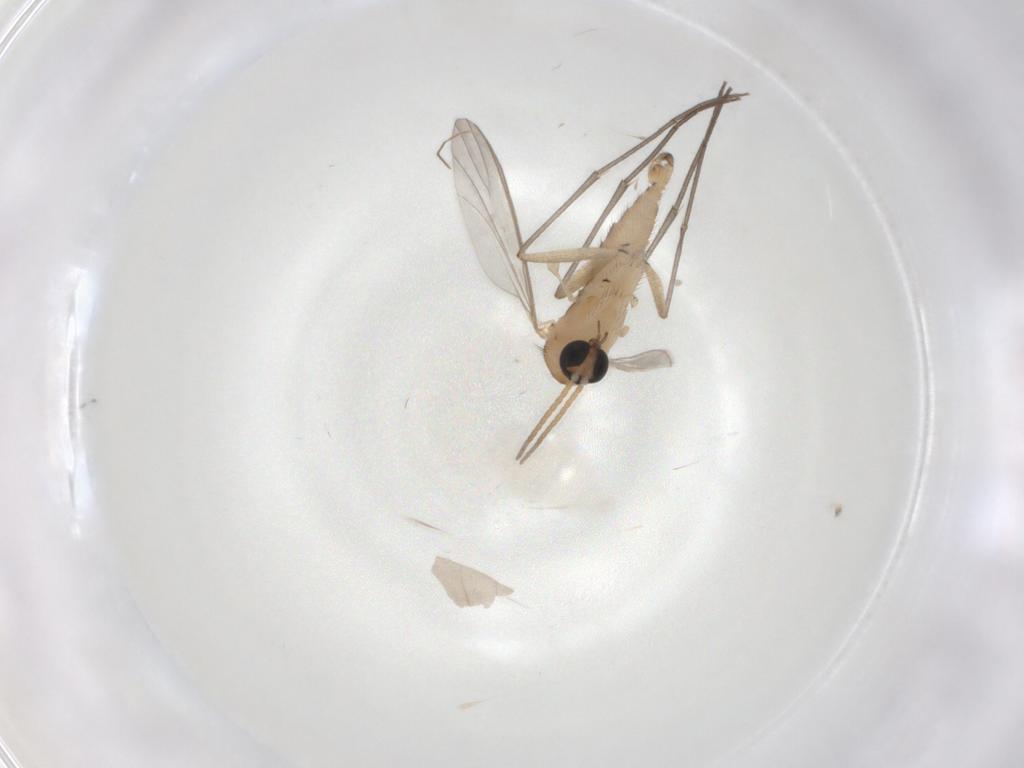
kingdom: Animalia
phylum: Arthropoda
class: Insecta
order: Diptera
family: Sciaridae
